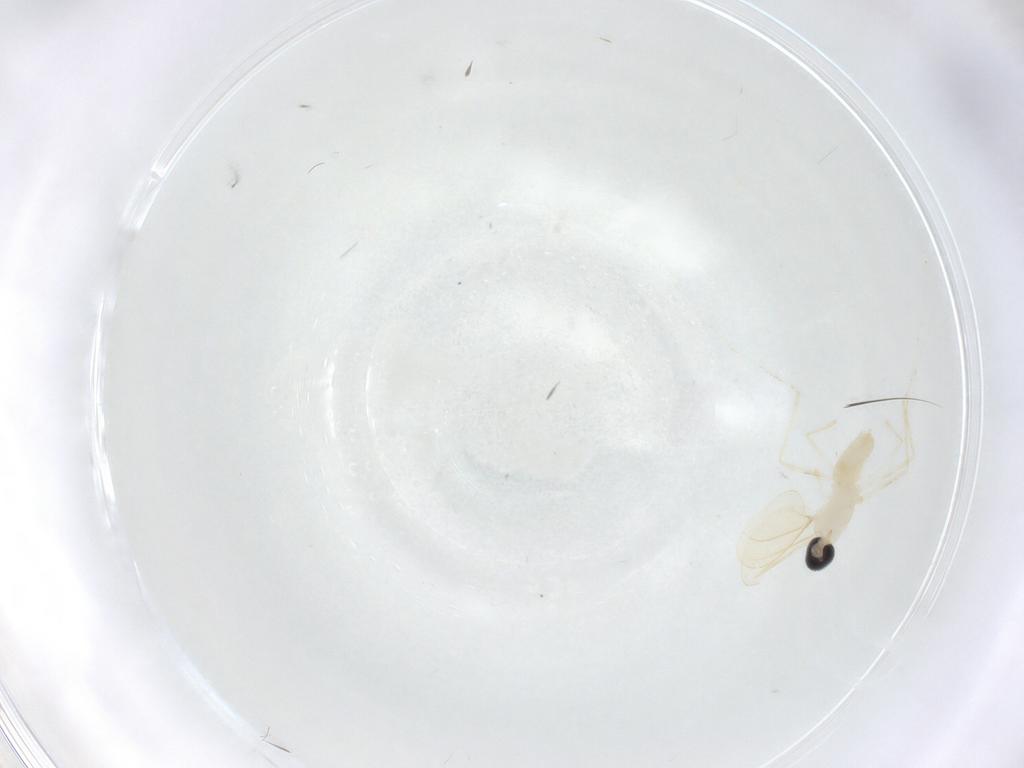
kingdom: Animalia
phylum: Arthropoda
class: Insecta
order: Diptera
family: Cecidomyiidae
